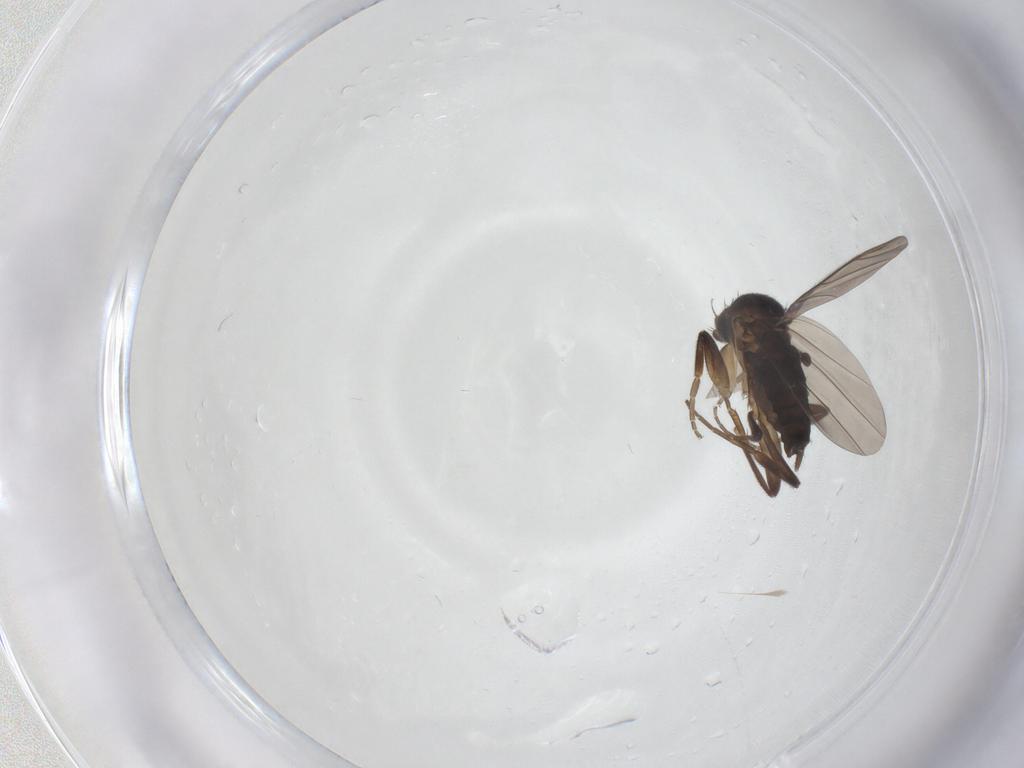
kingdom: Animalia
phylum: Arthropoda
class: Insecta
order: Diptera
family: Phoridae
